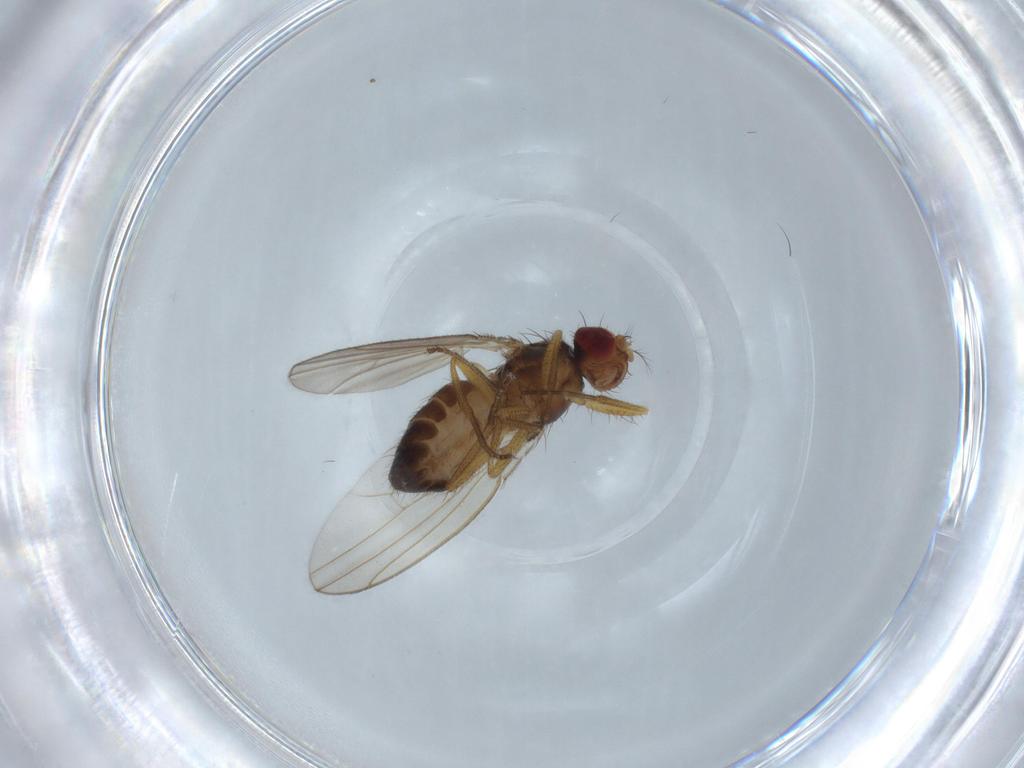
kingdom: Animalia
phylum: Arthropoda
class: Insecta
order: Diptera
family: Drosophilidae
